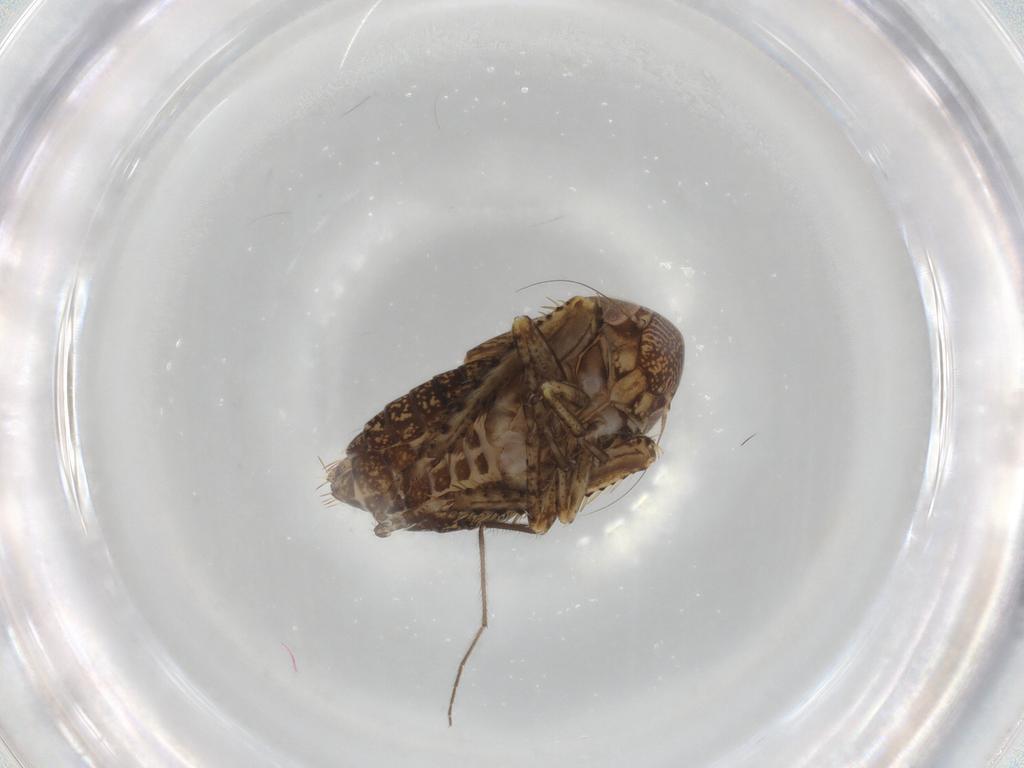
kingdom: Animalia
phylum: Arthropoda
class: Insecta
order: Hemiptera
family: Cicadellidae
